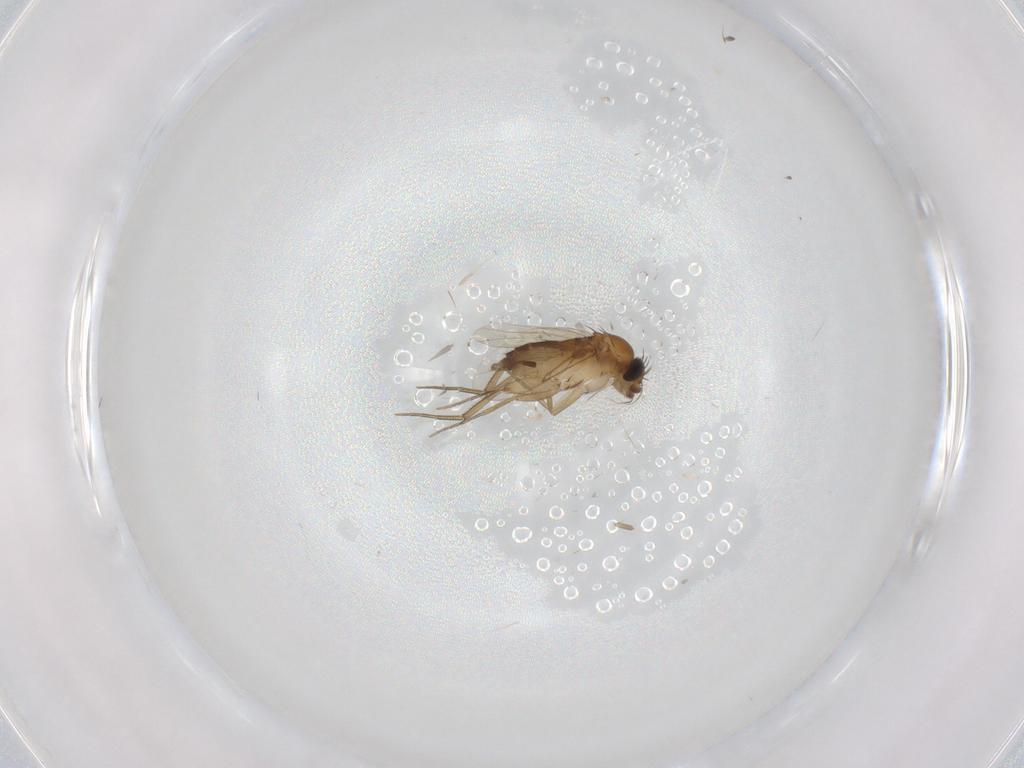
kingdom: Animalia
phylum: Arthropoda
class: Insecta
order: Diptera
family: Phoridae
